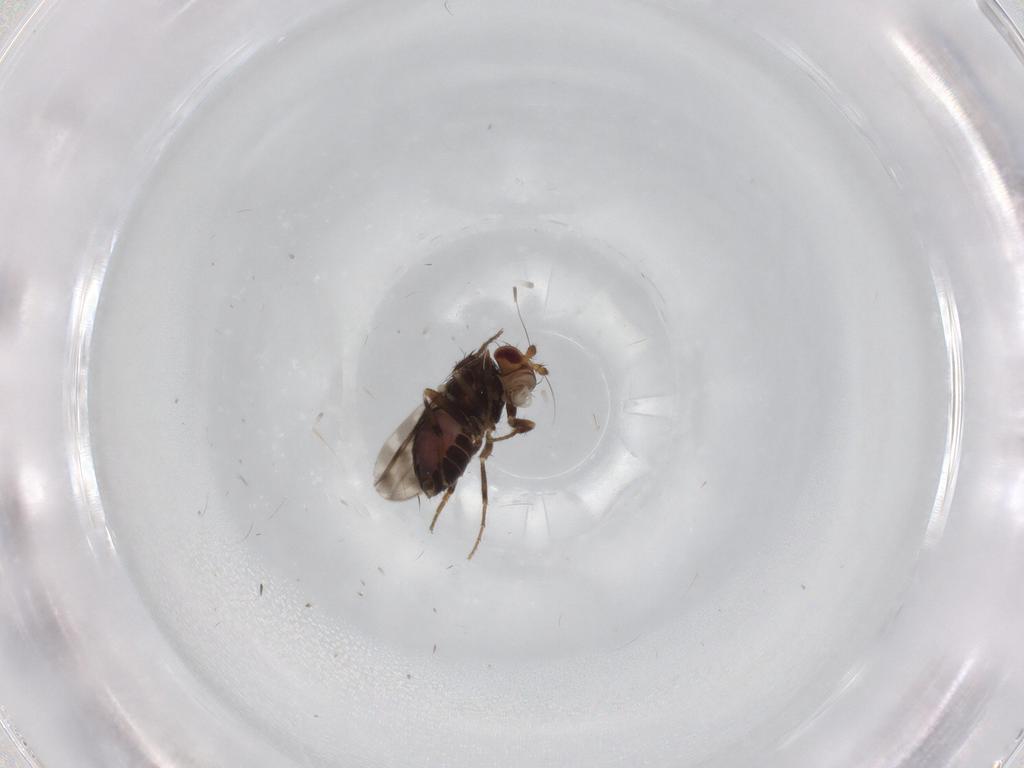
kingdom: Animalia
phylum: Arthropoda
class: Insecta
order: Diptera
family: Sphaeroceridae
